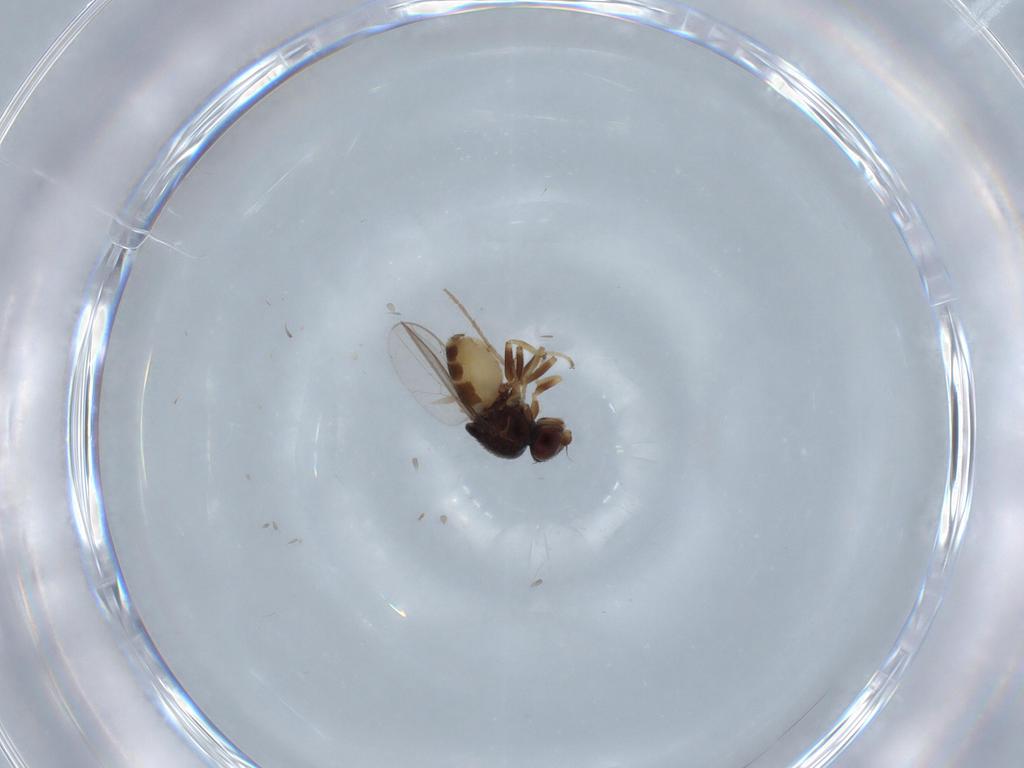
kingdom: Animalia
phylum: Arthropoda
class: Insecta
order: Diptera
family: Chloropidae
